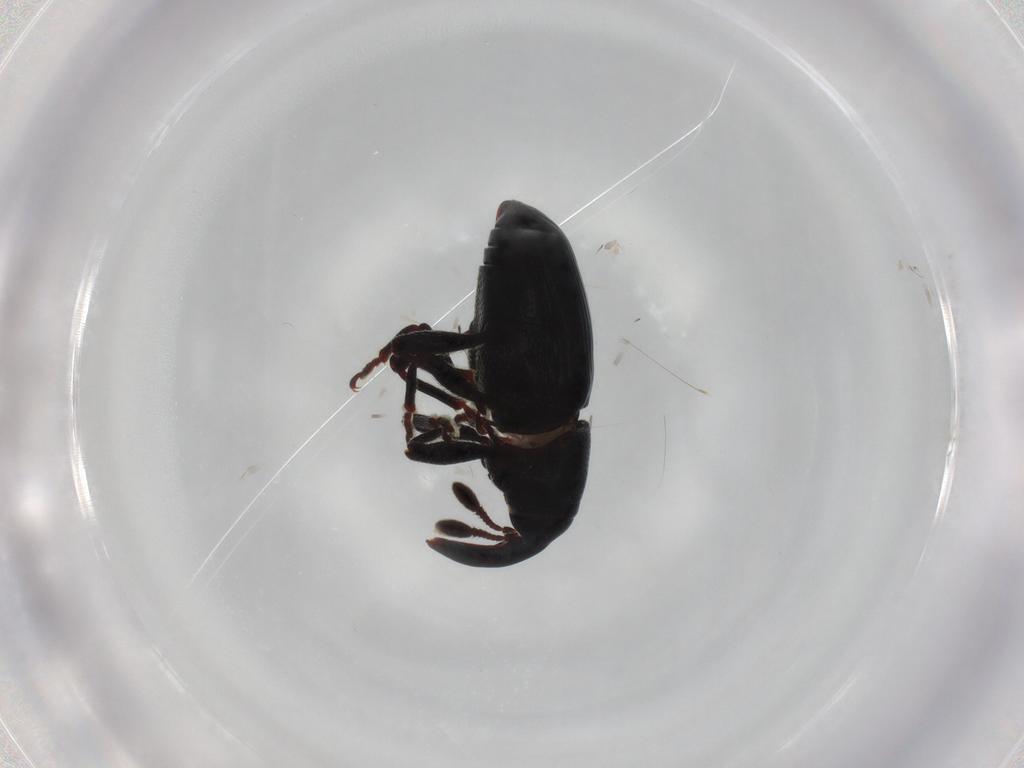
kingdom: Animalia
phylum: Arthropoda
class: Insecta
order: Coleoptera
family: Curculionidae
